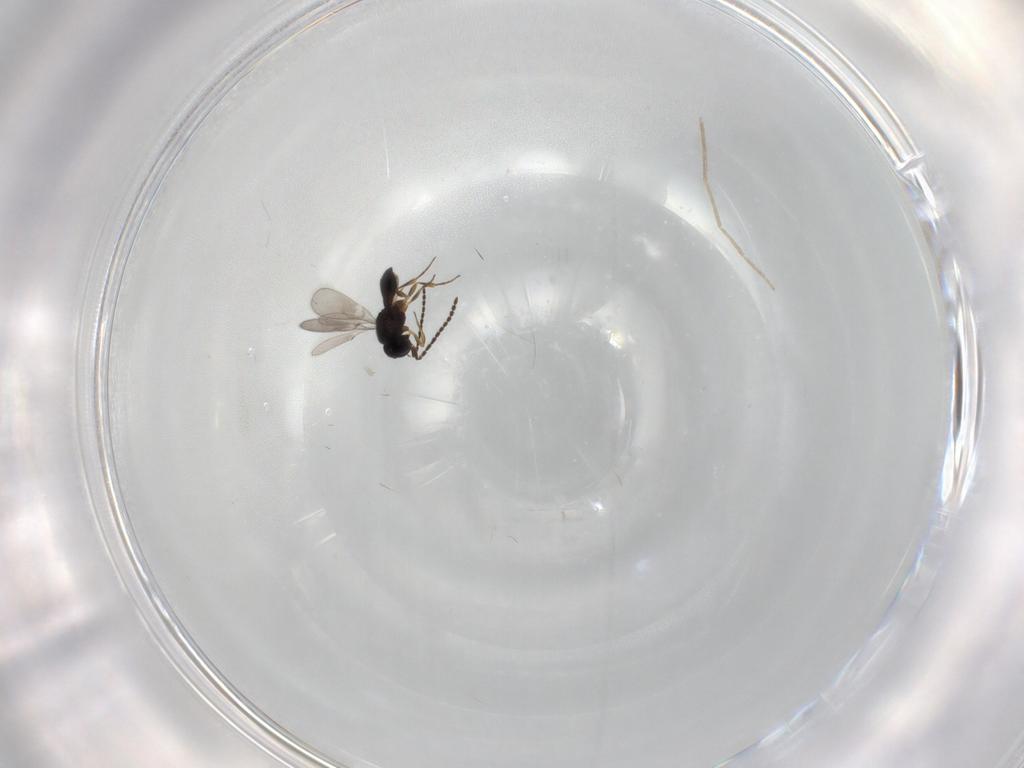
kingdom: Animalia
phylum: Arthropoda
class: Insecta
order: Hymenoptera
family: Scelionidae
